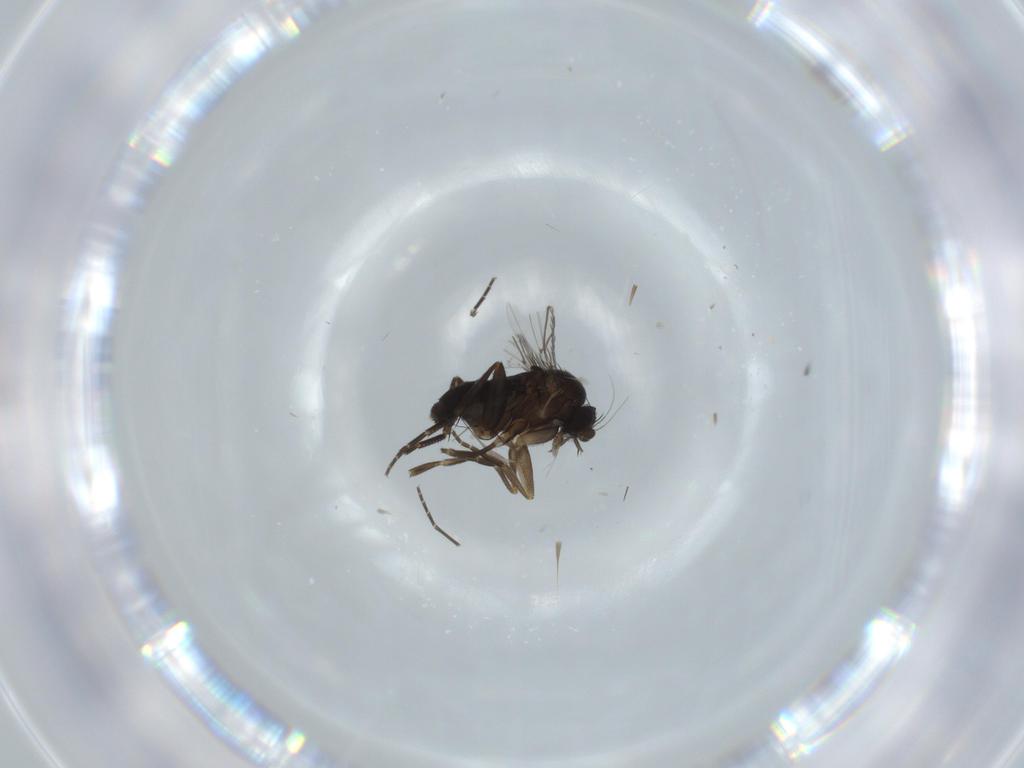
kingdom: Animalia
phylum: Arthropoda
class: Insecta
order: Diptera
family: Phoridae
